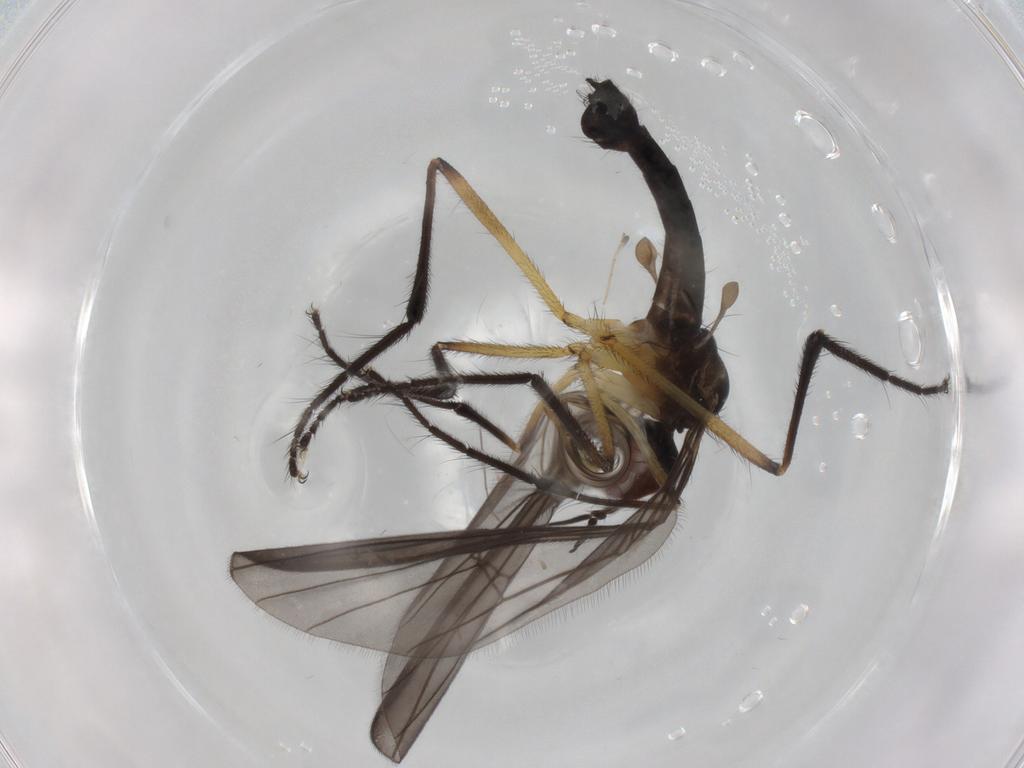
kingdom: Animalia
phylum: Arthropoda
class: Insecta
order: Diptera
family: Empididae
